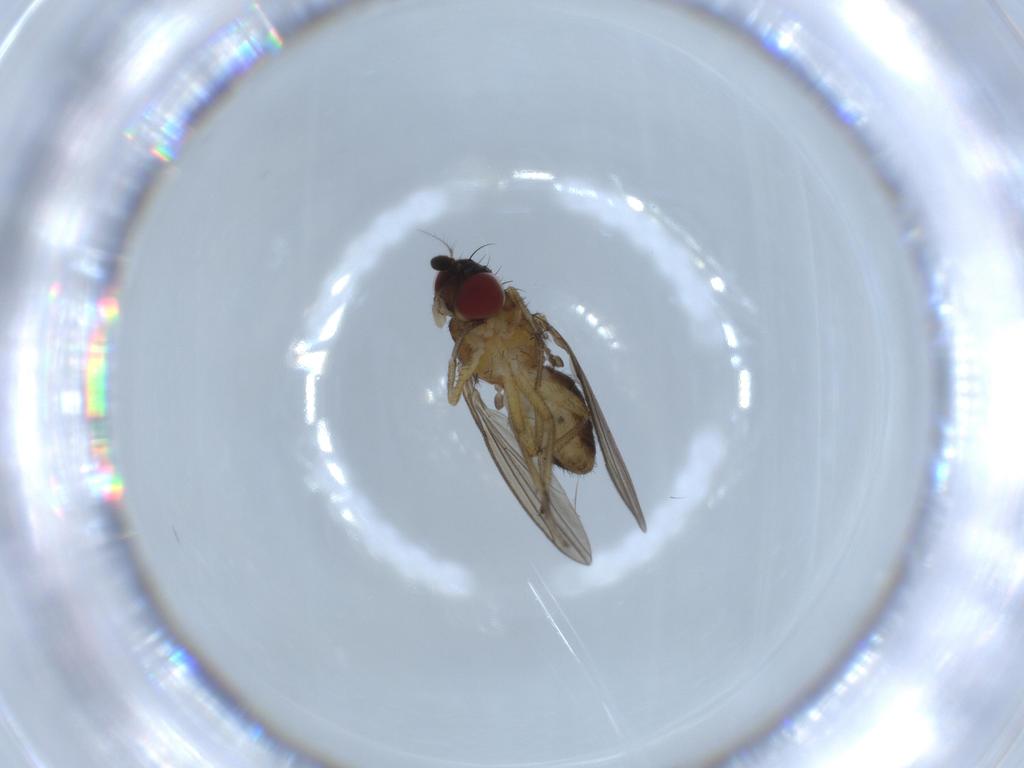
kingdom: Animalia
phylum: Arthropoda
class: Insecta
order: Diptera
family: Lauxaniidae
